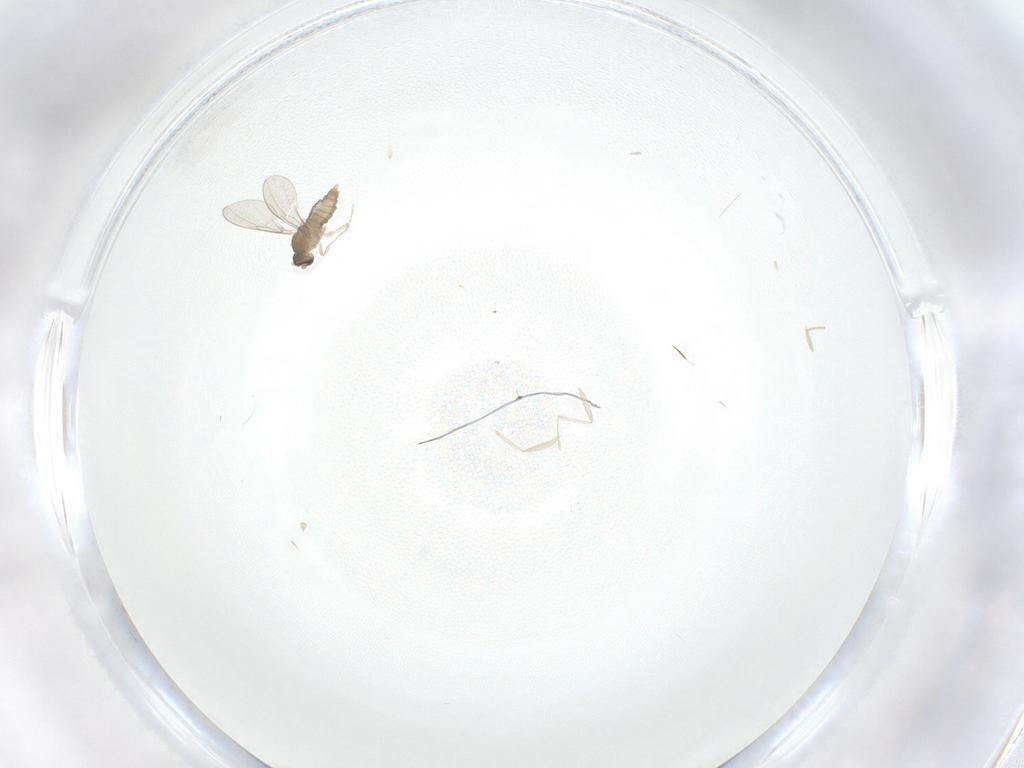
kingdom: Animalia
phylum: Arthropoda
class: Insecta
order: Diptera
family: Cecidomyiidae
